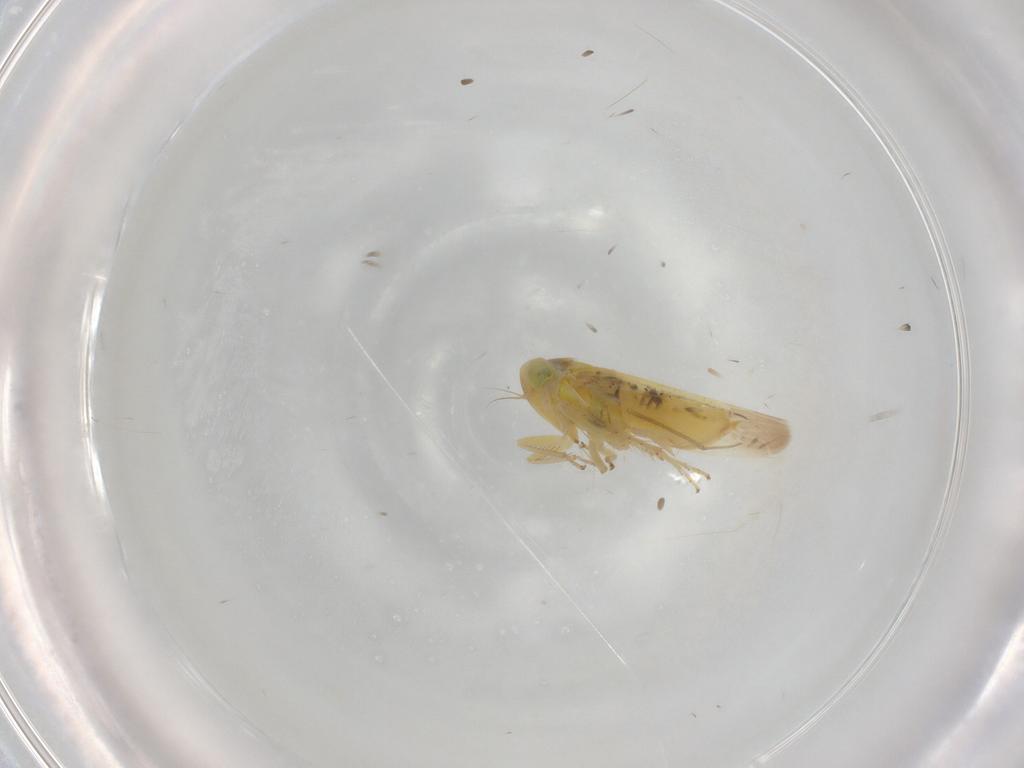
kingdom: Animalia
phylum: Arthropoda
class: Insecta
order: Hemiptera
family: Cicadellidae
